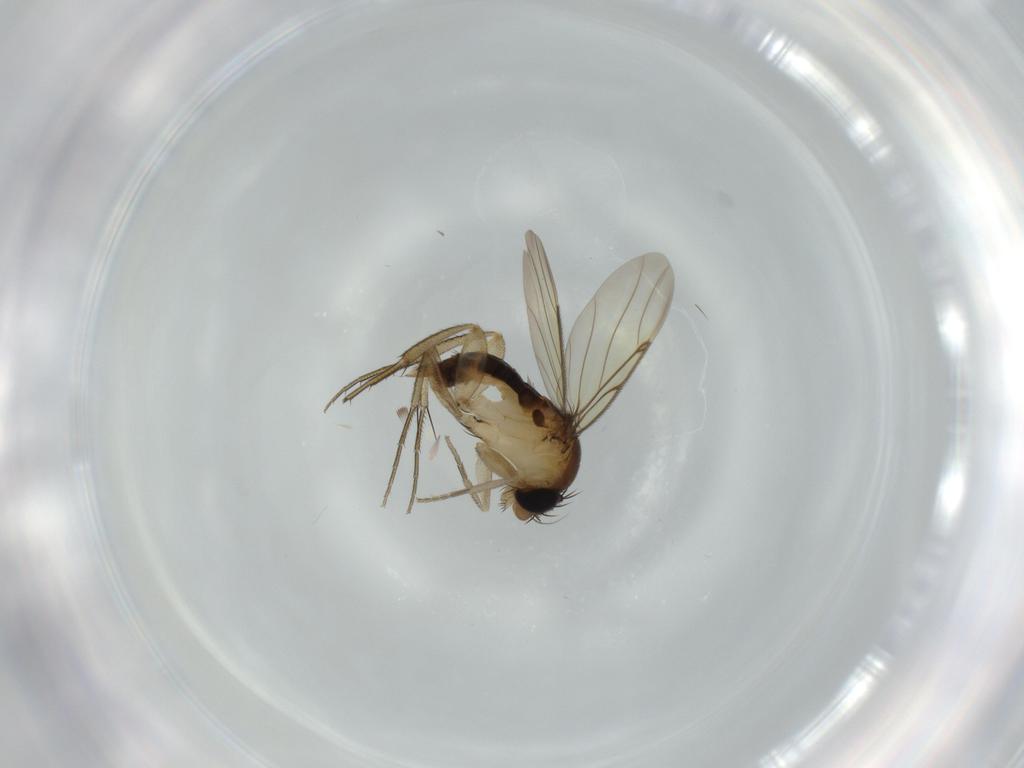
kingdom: Animalia
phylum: Arthropoda
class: Insecta
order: Diptera
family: Phoridae
